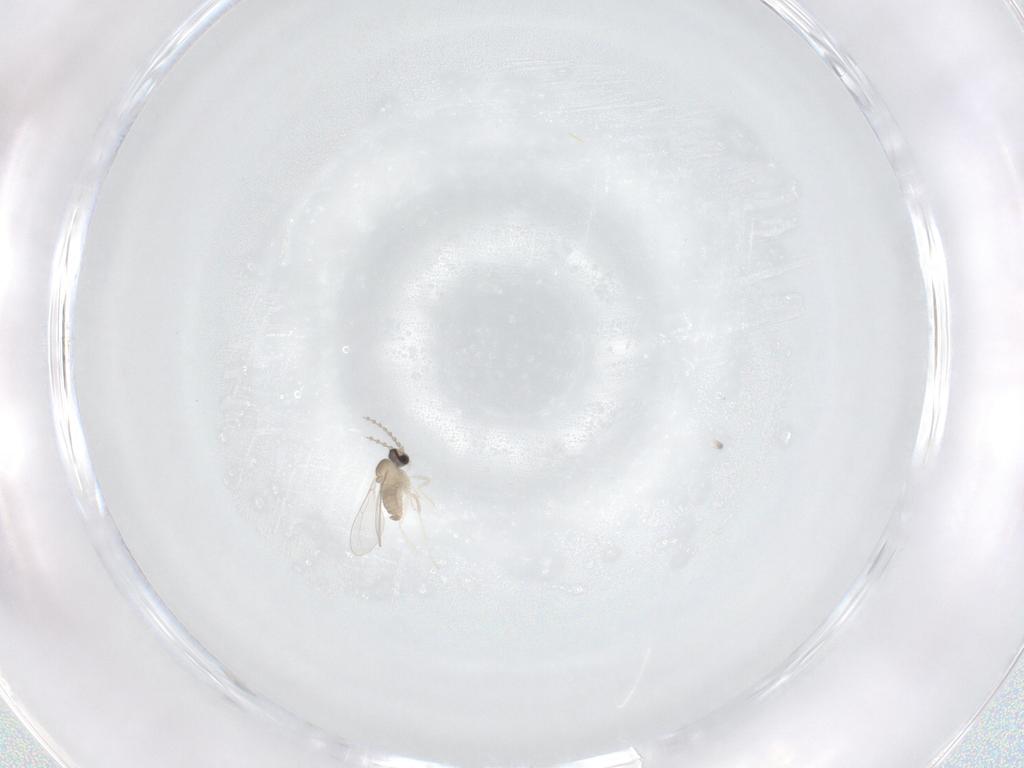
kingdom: Animalia
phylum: Arthropoda
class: Insecta
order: Diptera
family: Cecidomyiidae
